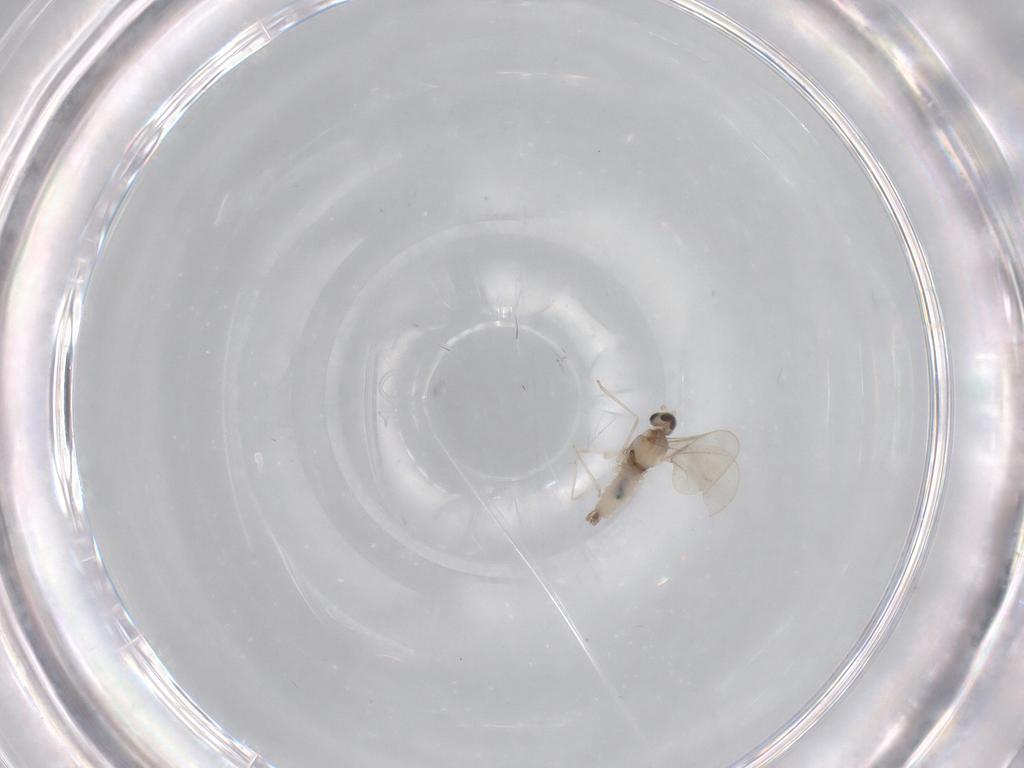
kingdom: Animalia
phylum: Arthropoda
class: Insecta
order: Diptera
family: Cecidomyiidae
